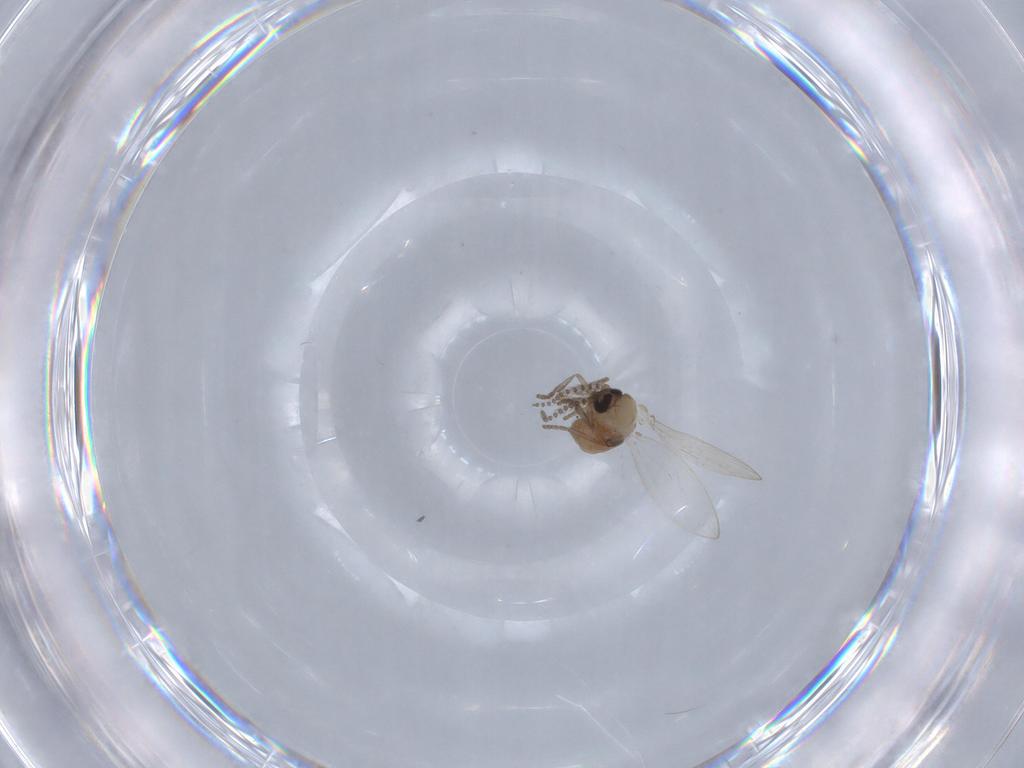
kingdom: Animalia
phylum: Arthropoda
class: Insecta
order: Diptera
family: Psychodidae
